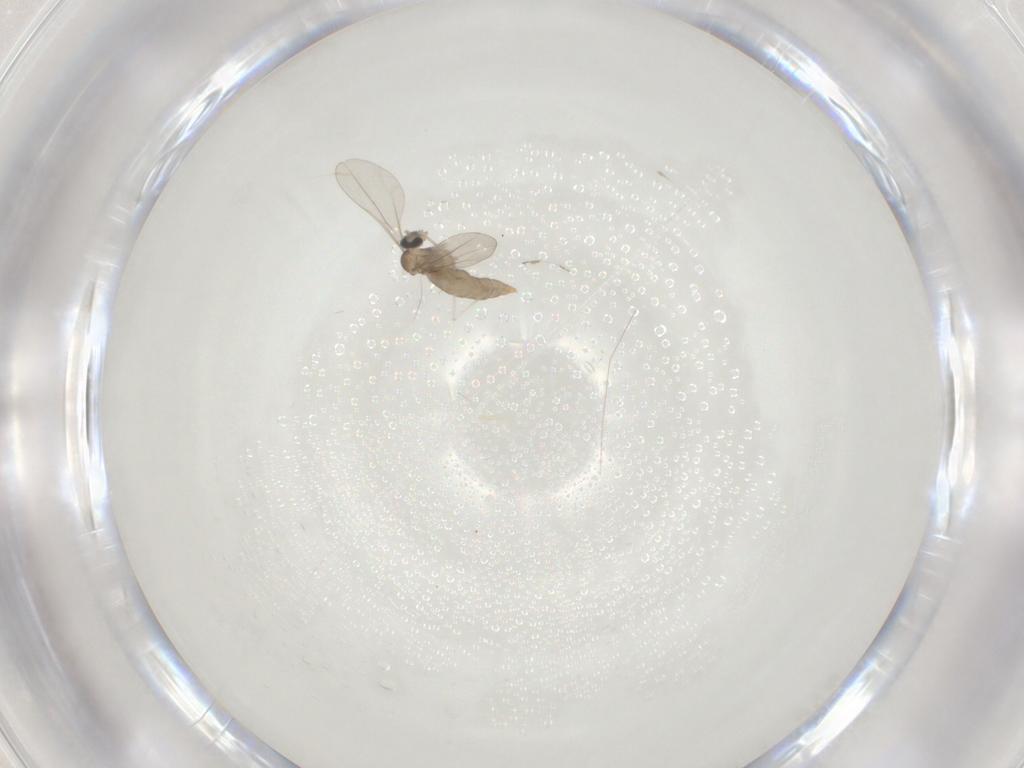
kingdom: Animalia
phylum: Arthropoda
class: Insecta
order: Diptera
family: Cecidomyiidae
